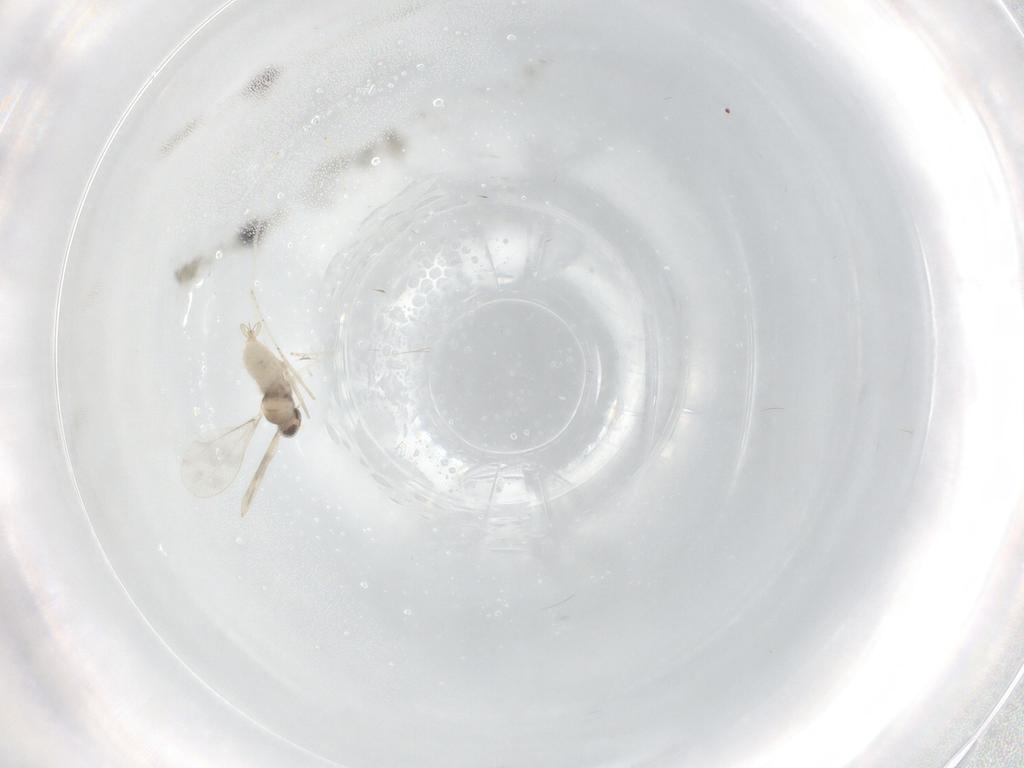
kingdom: Animalia
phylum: Arthropoda
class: Insecta
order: Diptera
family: Cecidomyiidae
